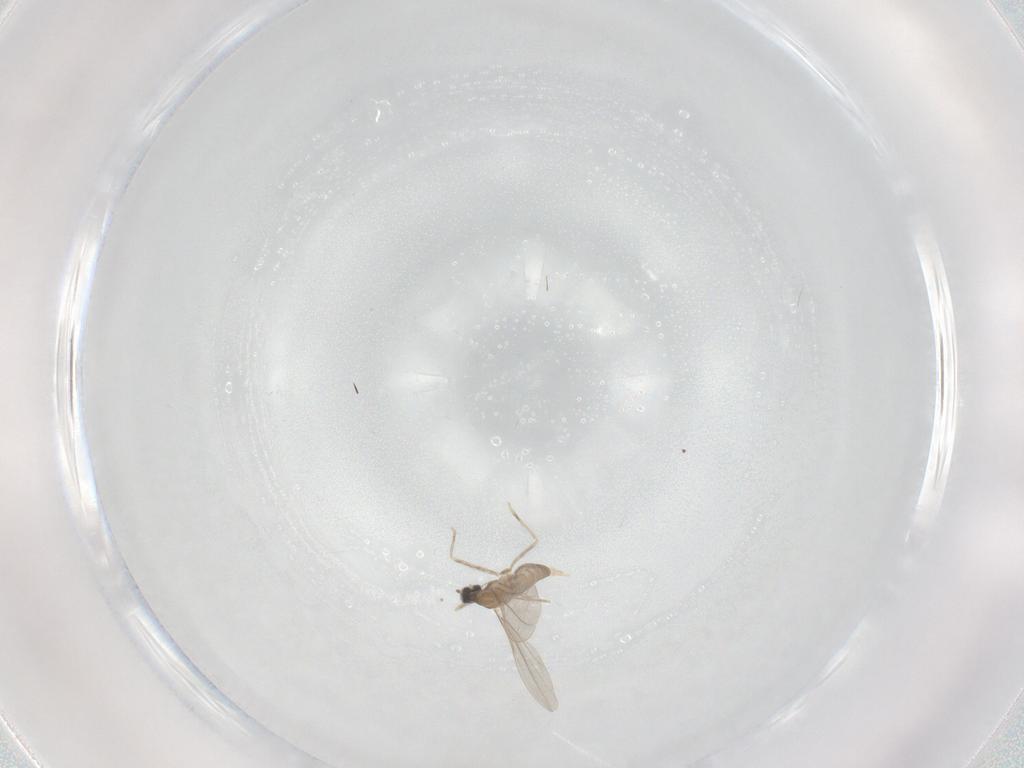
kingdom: Animalia
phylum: Arthropoda
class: Insecta
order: Diptera
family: Cecidomyiidae
